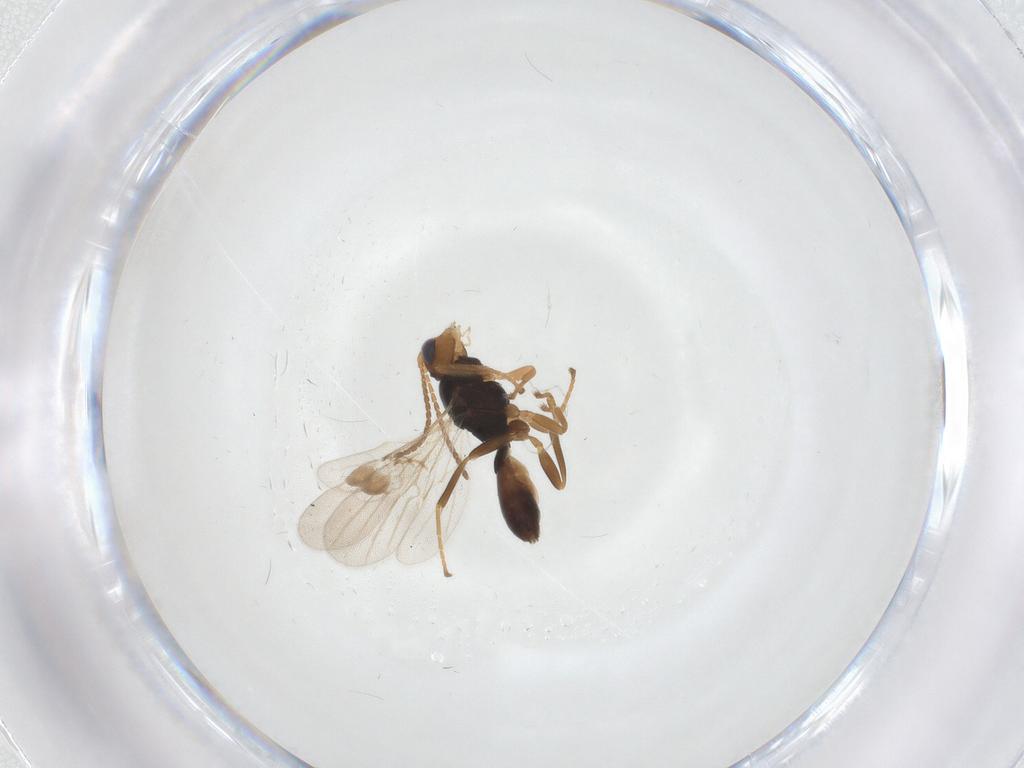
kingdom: Animalia
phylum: Arthropoda
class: Insecta
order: Hymenoptera
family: Braconidae
